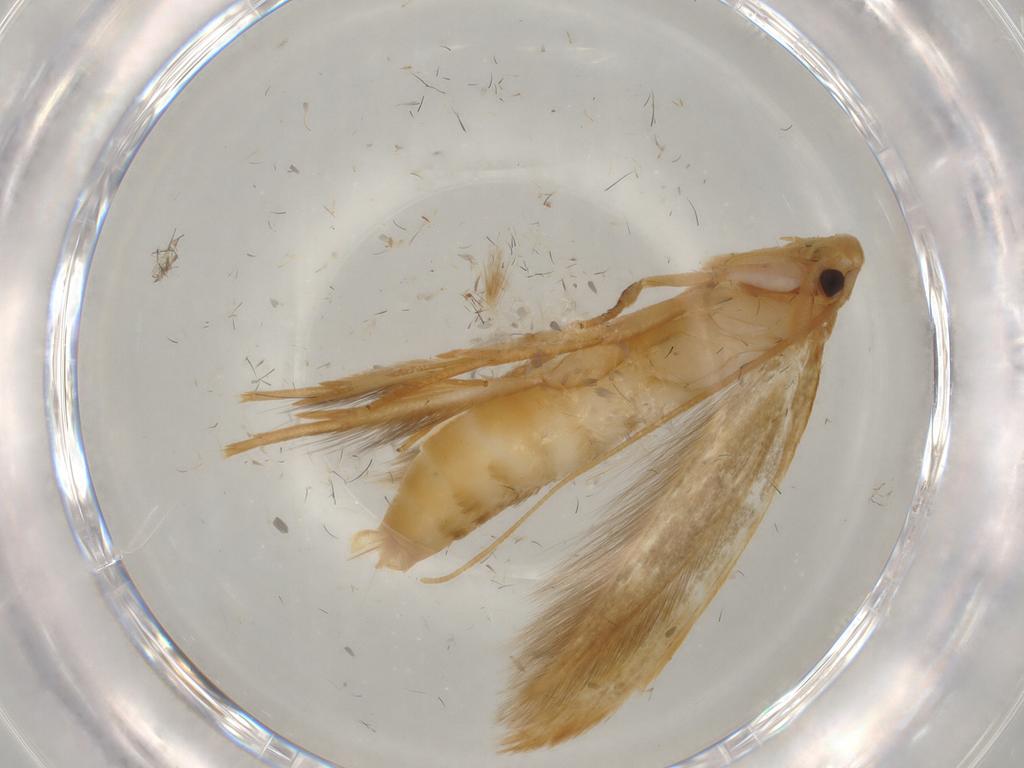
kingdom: Animalia
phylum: Arthropoda
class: Insecta
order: Lepidoptera
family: Tineidae
